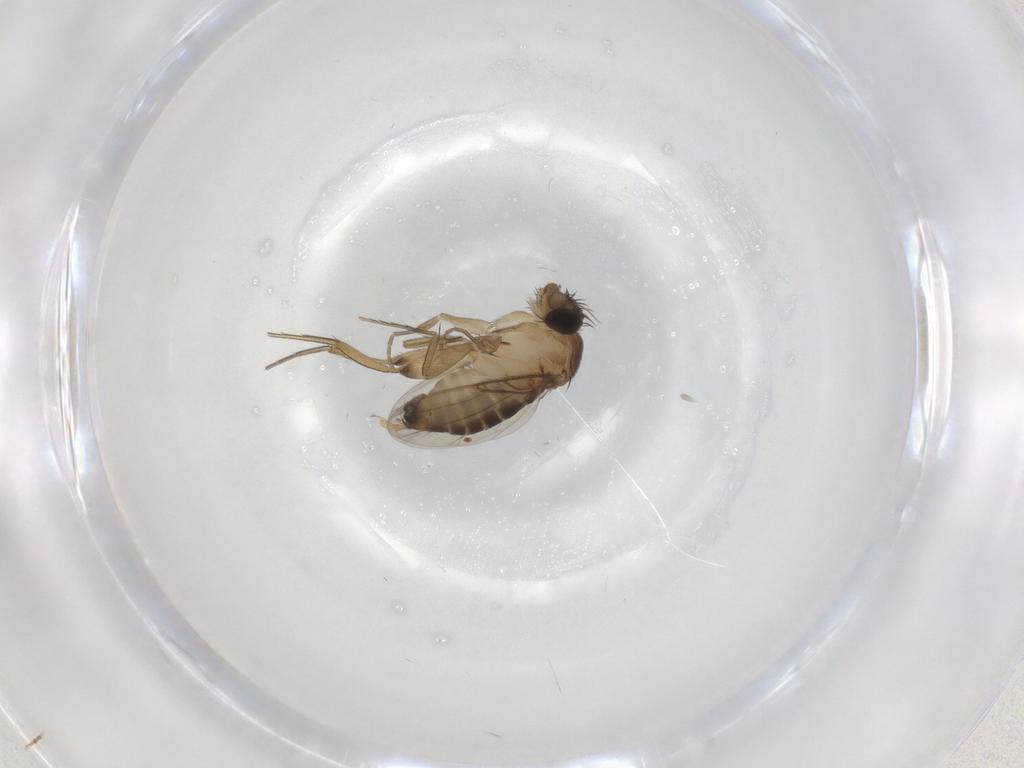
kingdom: Animalia
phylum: Arthropoda
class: Insecta
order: Diptera
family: Phoridae
